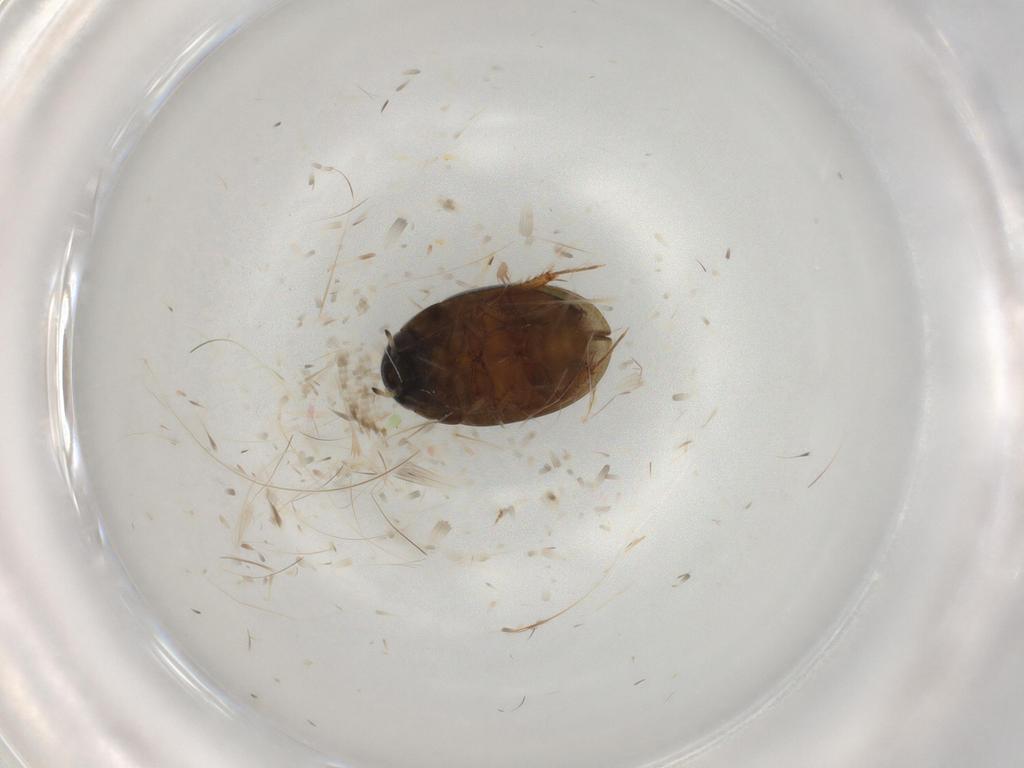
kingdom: Animalia
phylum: Arthropoda
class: Insecta
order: Coleoptera
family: Hydrophilidae
